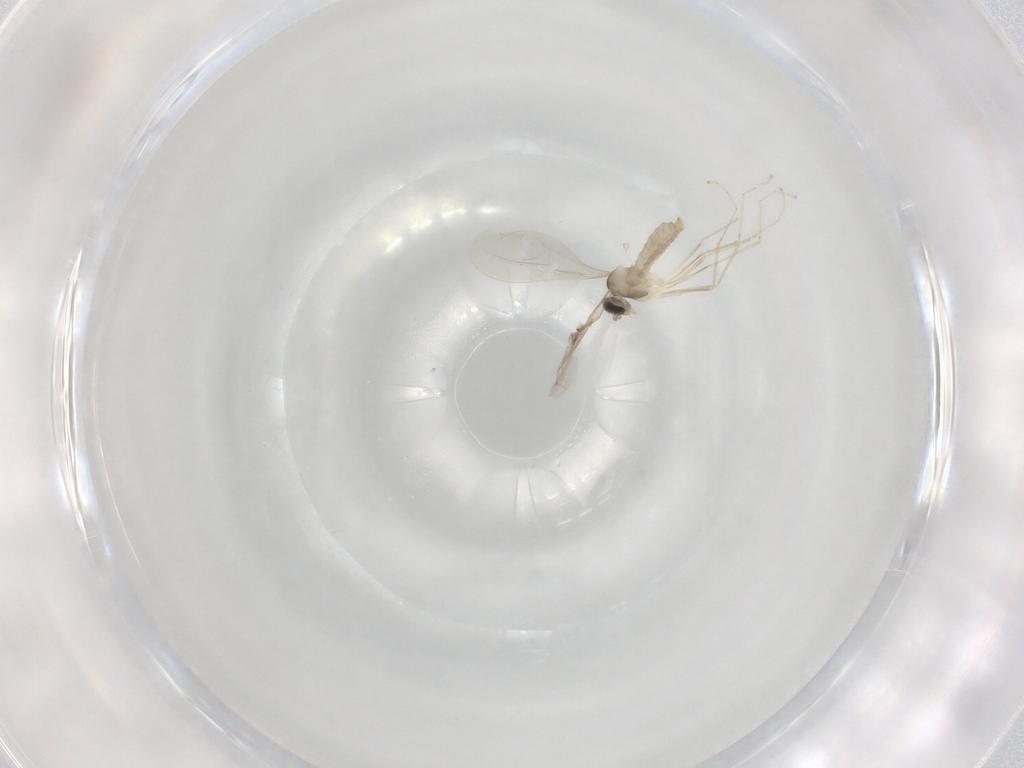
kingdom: Animalia
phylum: Arthropoda
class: Insecta
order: Diptera
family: Cecidomyiidae
